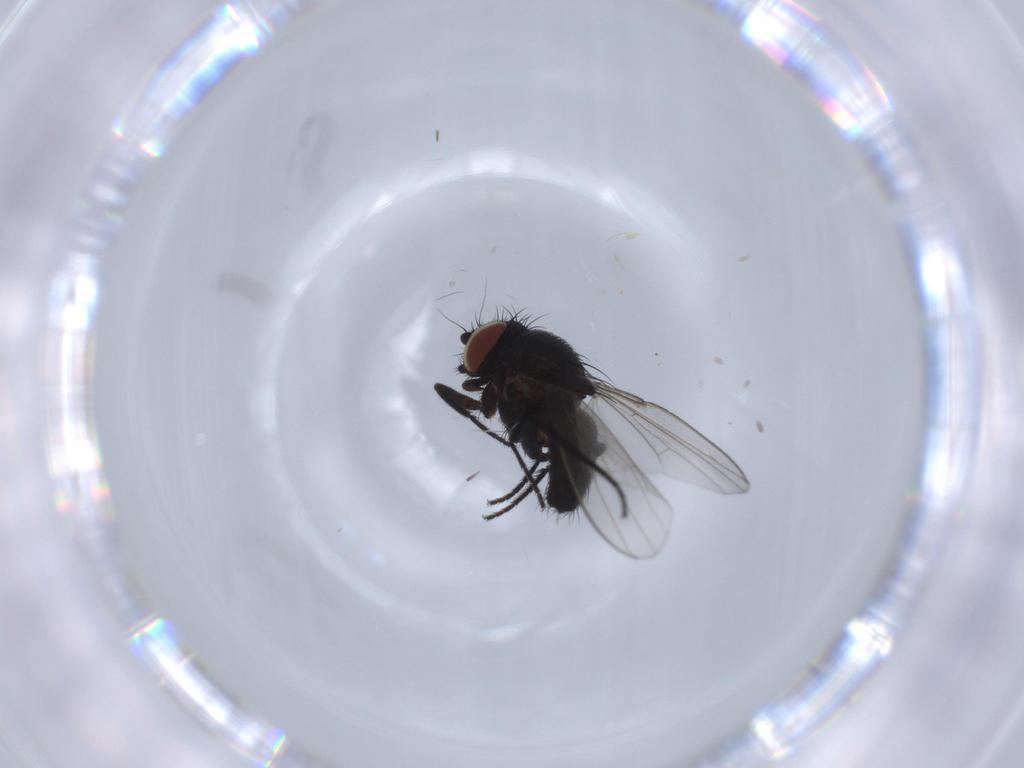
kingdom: Animalia
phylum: Arthropoda
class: Insecta
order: Diptera
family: Milichiidae
